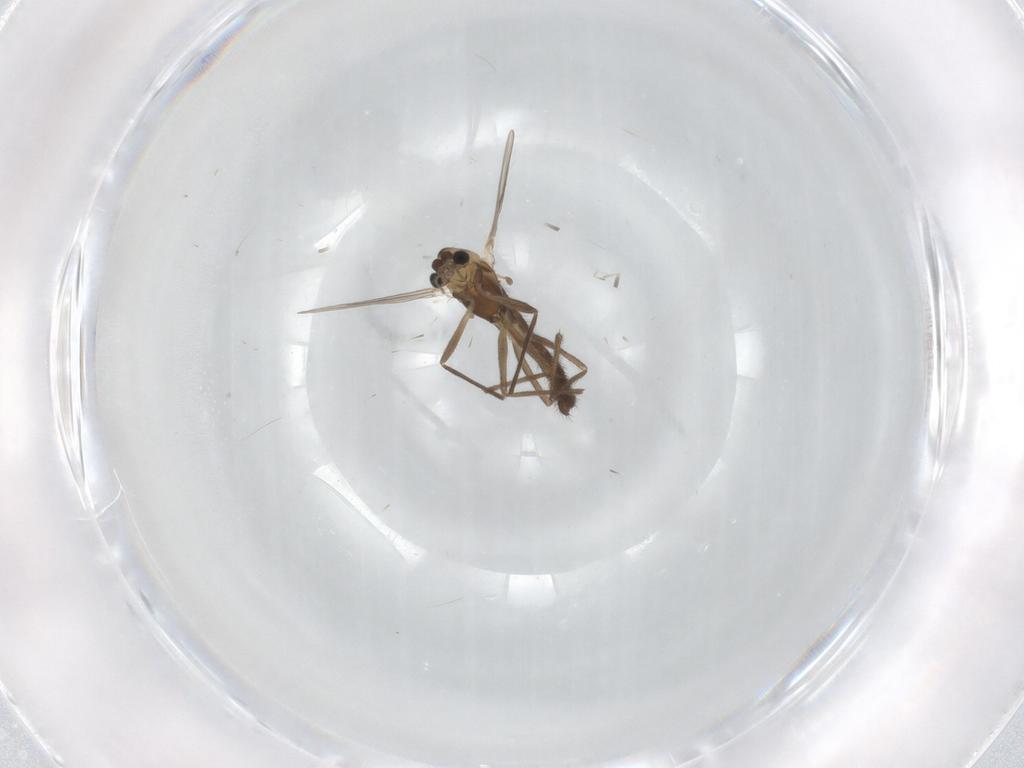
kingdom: Animalia
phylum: Arthropoda
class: Insecta
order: Diptera
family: Chironomidae
